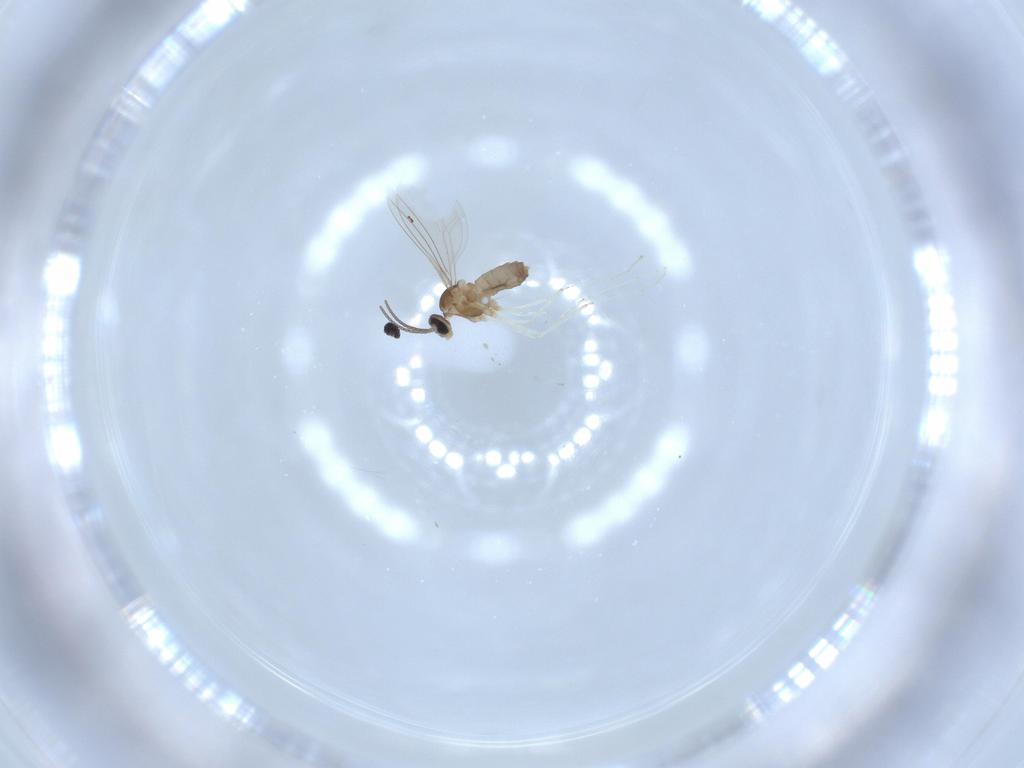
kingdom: Animalia
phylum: Arthropoda
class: Insecta
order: Diptera
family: Cecidomyiidae
